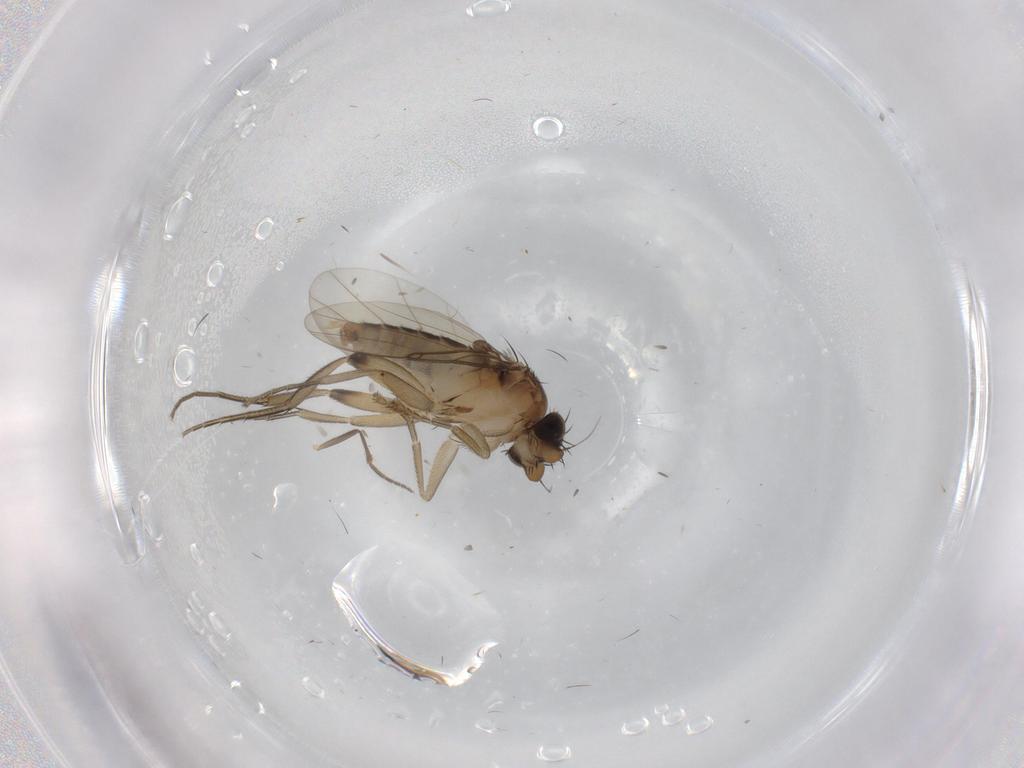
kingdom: Animalia
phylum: Arthropoda
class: Insecta
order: Diptera
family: Phoridae
